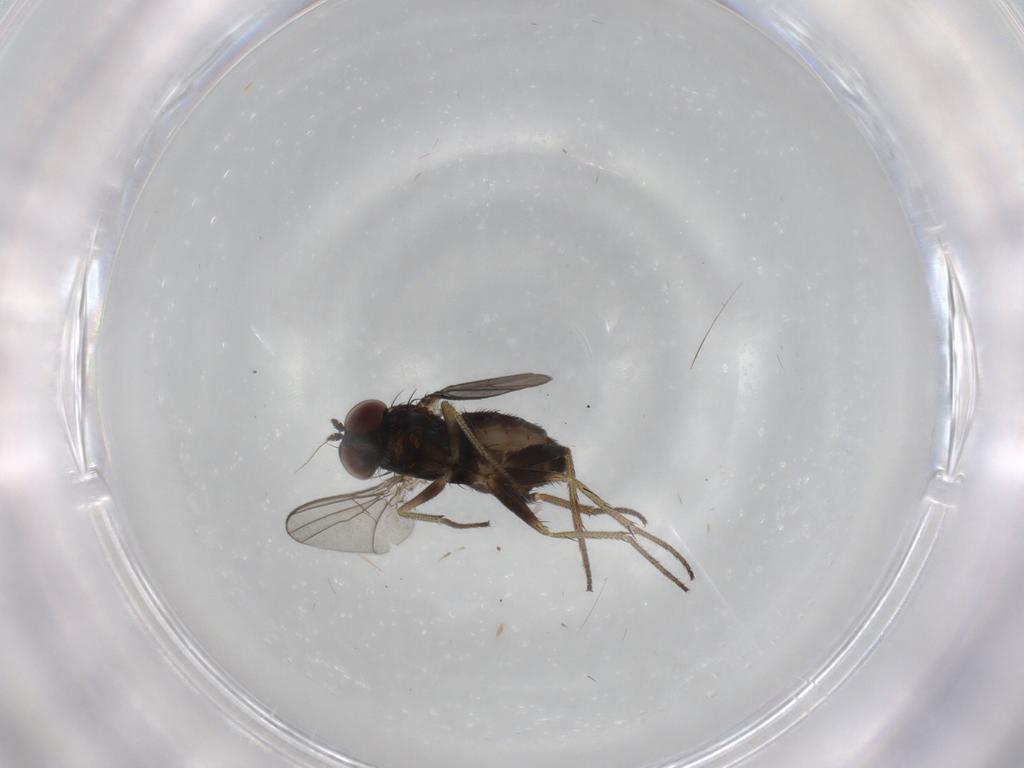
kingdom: Animalia
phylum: Arthropoda
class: Insecta
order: Diptera
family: Dolichopodidae
